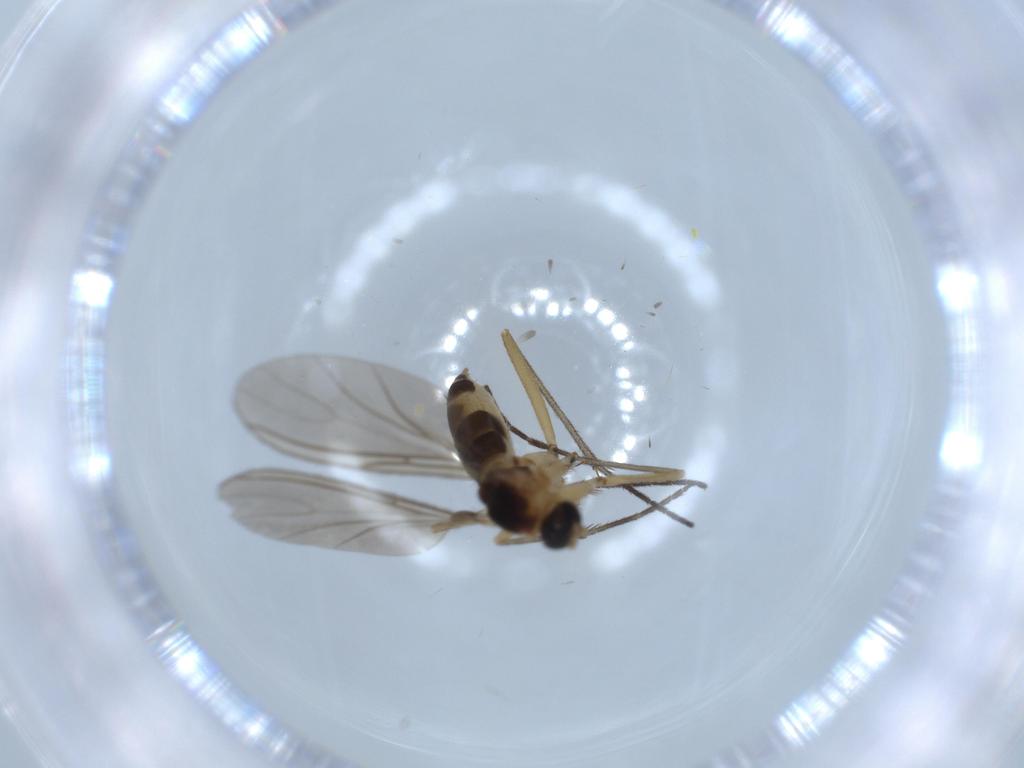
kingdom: Animalia
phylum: Arthropoda
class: Insecta
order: Diptera
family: Sciaridae
